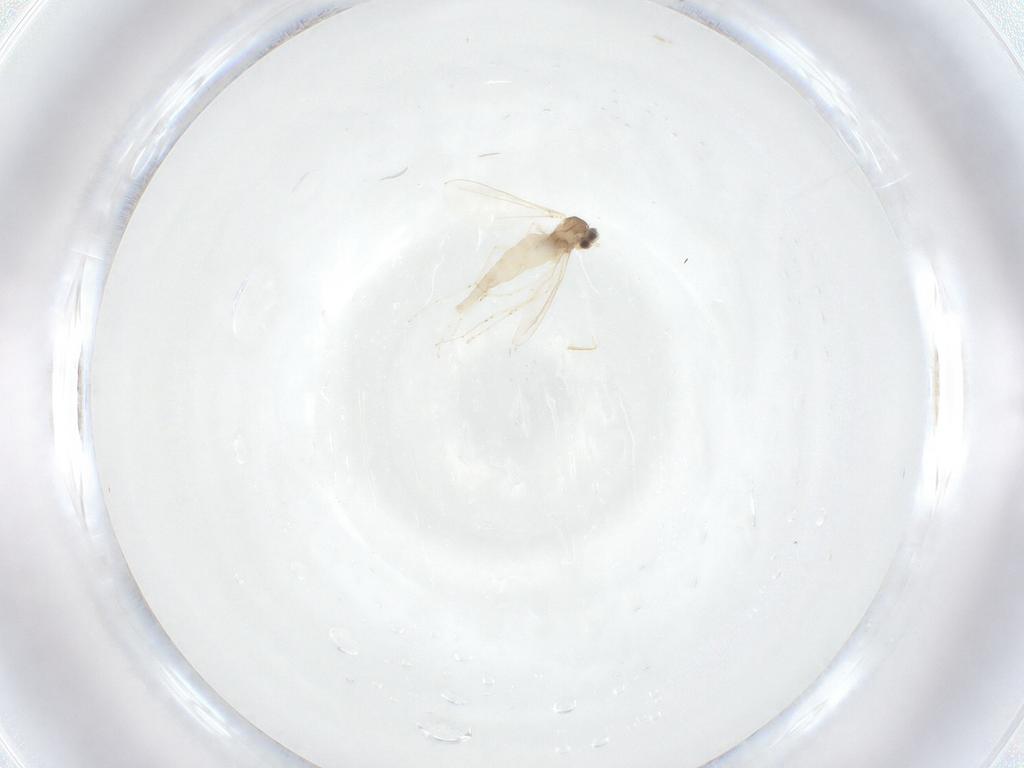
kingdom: Animalia
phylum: Arthropoda
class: Insecta
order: Diptera
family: Cecidomyiidae
